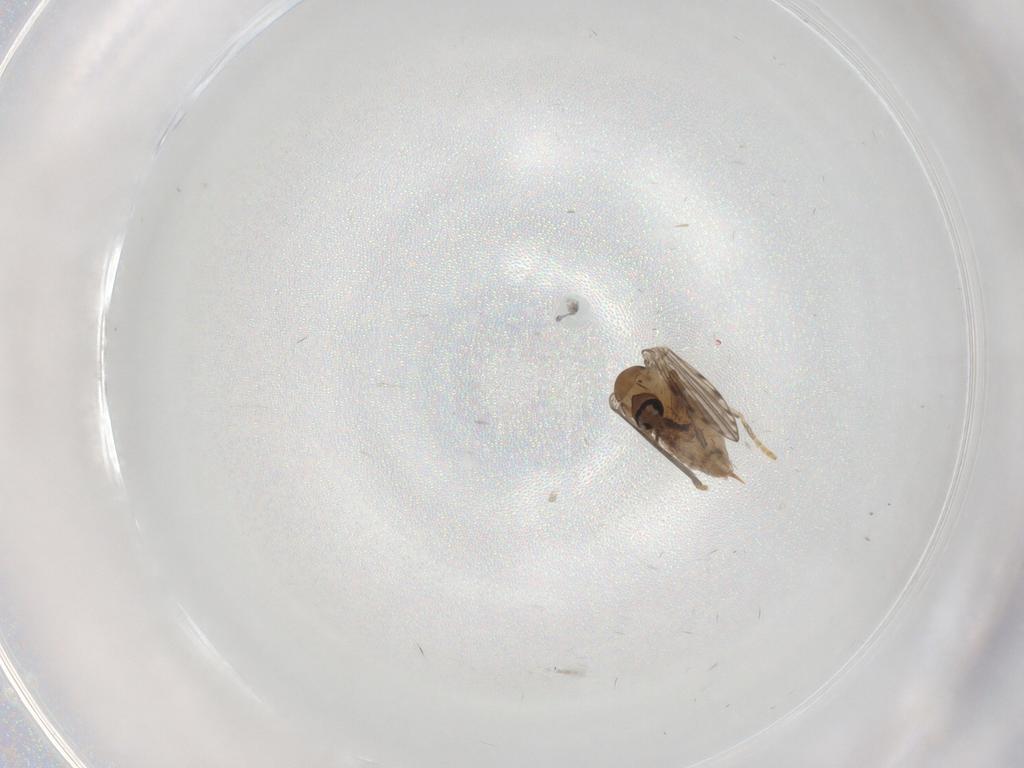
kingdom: Animalia
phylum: Arthropoda
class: Insecta
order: Diptera
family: Psychodidae
